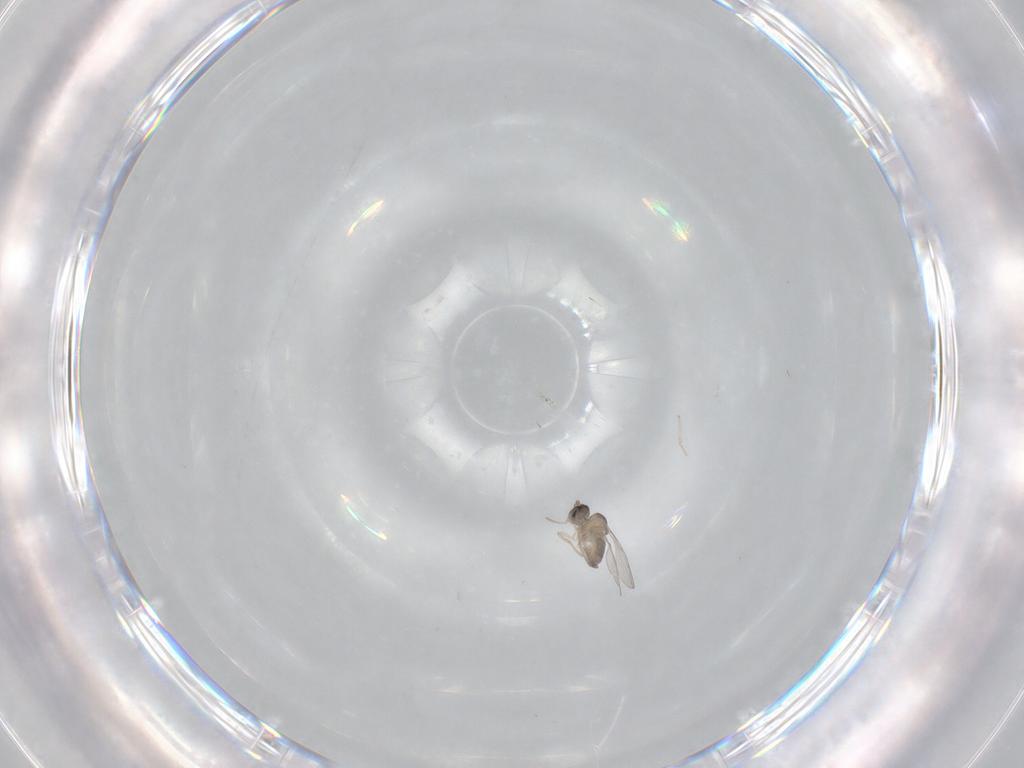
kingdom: Animalia
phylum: Arthropoda
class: Insecta
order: Diptera
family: Cecidomyiidae
